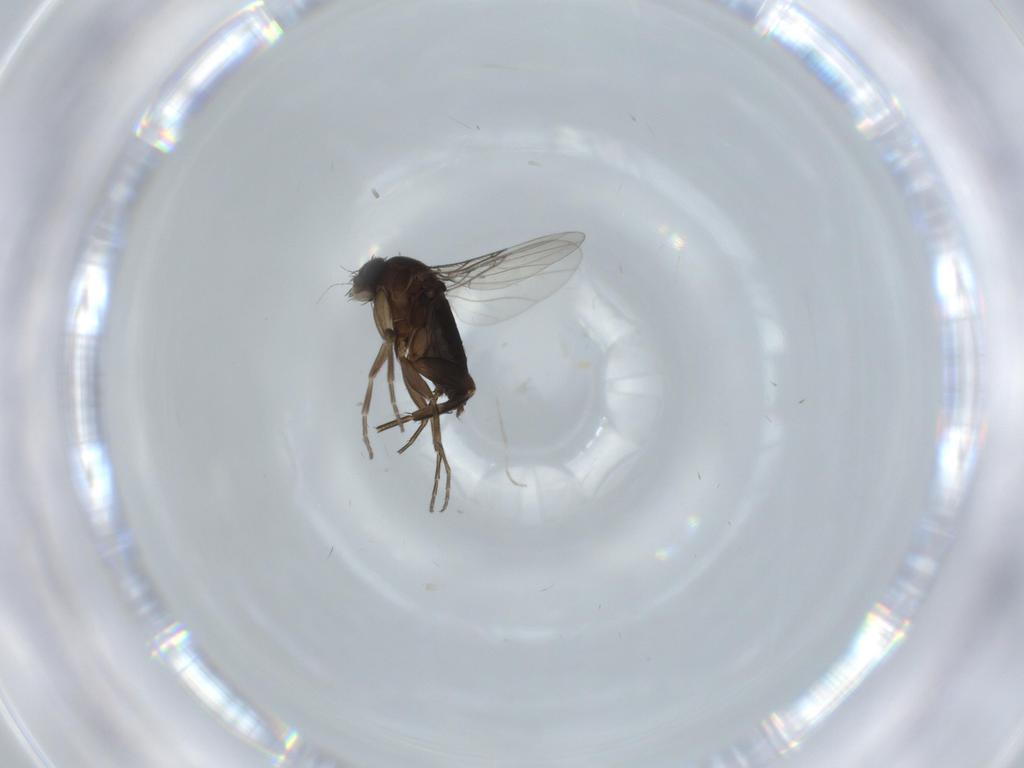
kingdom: Animalia
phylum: Arthropoda
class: Insecta
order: Diptera
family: Phoridae
